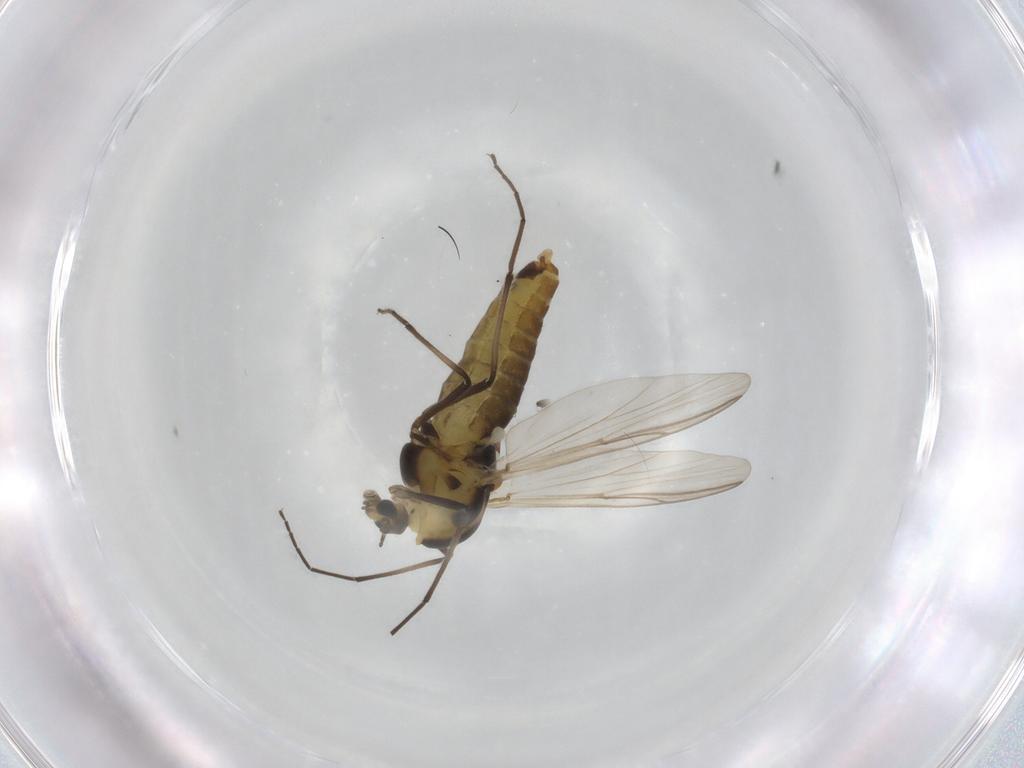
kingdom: Animalia
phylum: Arthropoda
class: Insecta
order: Diptera
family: Chironomidae
